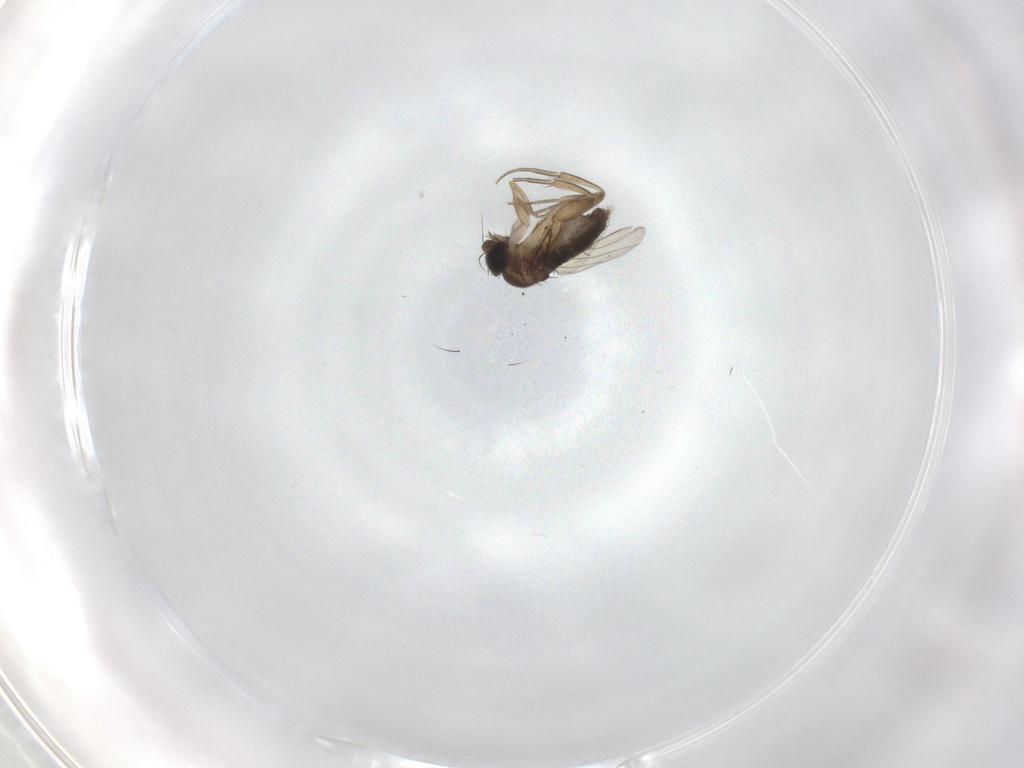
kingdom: Animalia
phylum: Arthropoda
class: Insecta
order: Diptera
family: Phoridae
